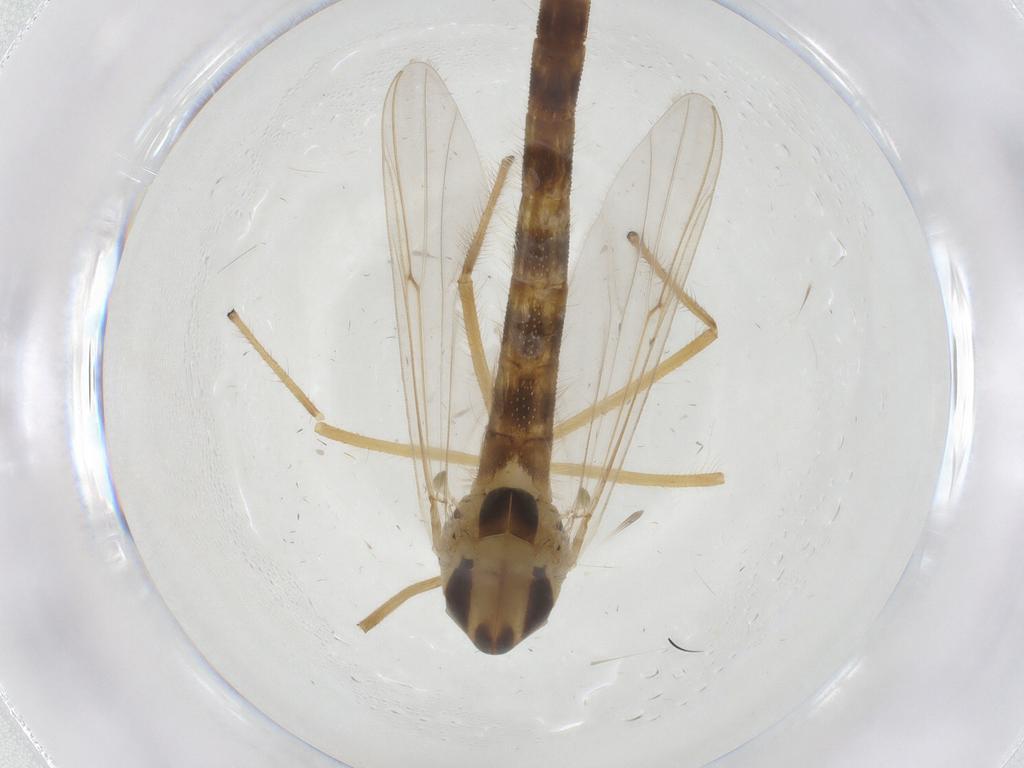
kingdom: Animalia
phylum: Arthropoda
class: Insecta
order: Diptera
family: Chironomidae
